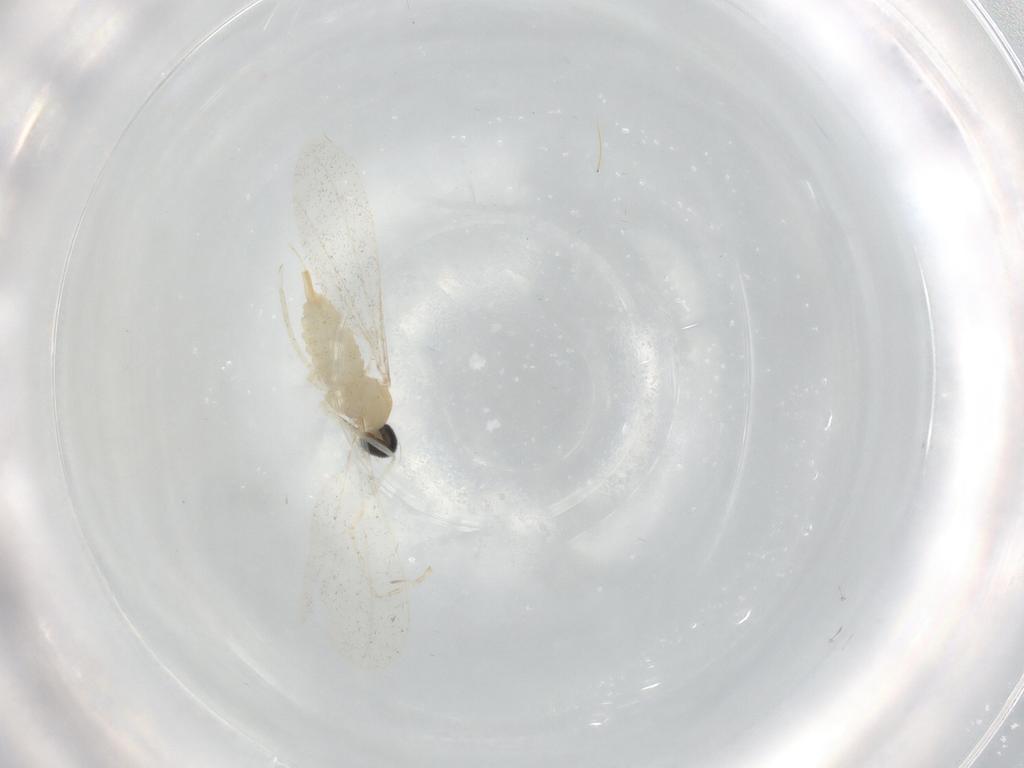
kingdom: Animalia
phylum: Arthropoda
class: Insecta
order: Diptera
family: Cecidomyiidae
